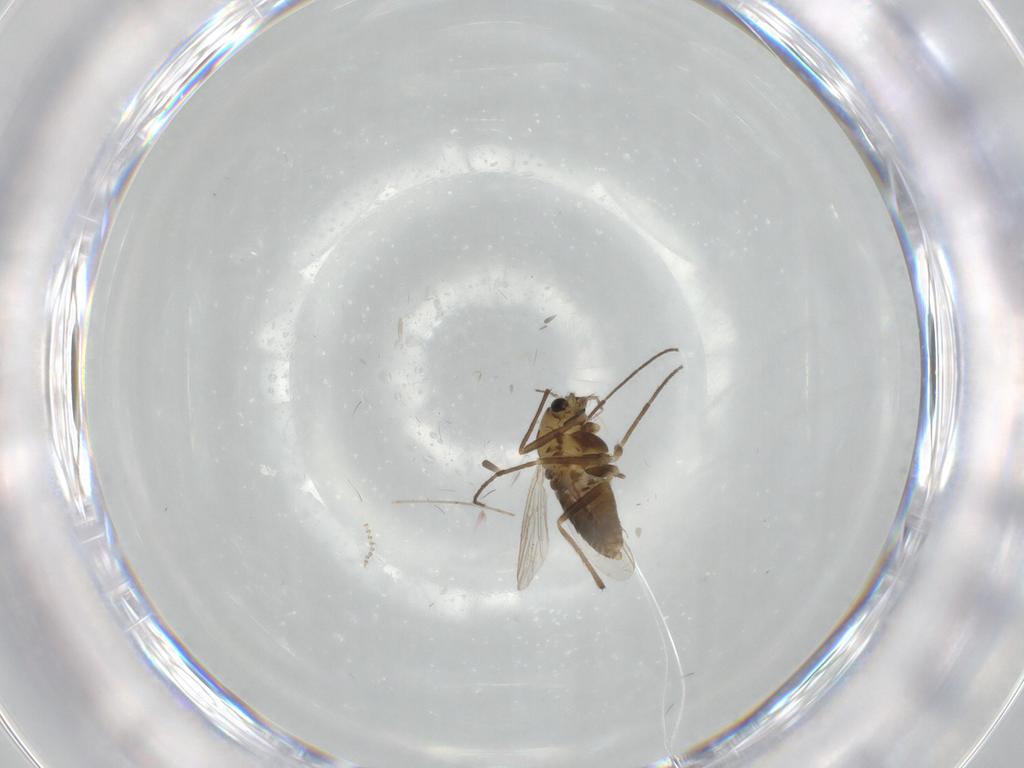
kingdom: Animalia
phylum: Arthropoda
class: Insecta
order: Diptera
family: Chironomidae
